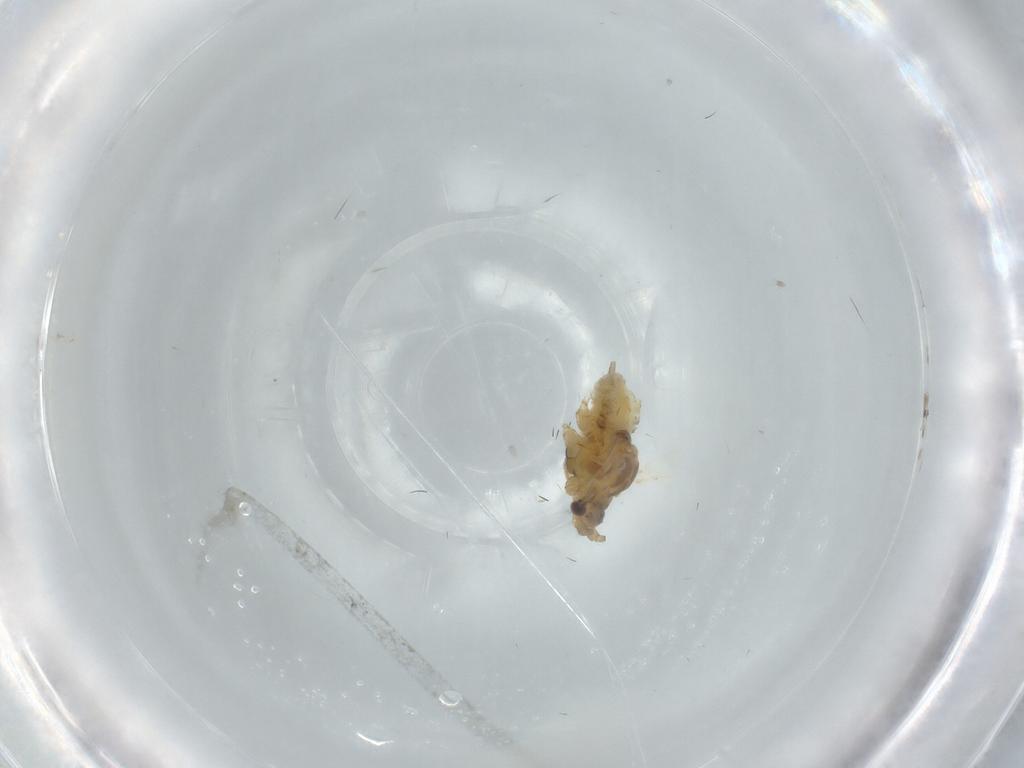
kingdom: Animalia
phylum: Arthropoda
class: Insecta
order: Hemiptera
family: Aphididae
